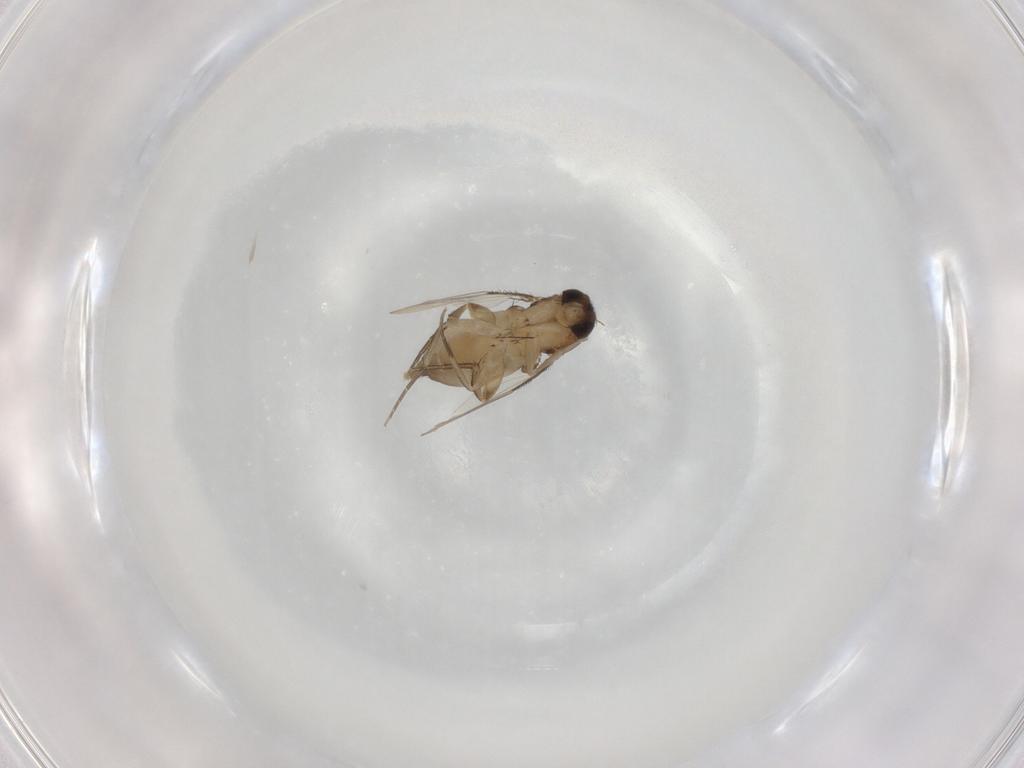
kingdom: Animalia
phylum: Arthropoda
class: Insecta
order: Diptera
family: Phoridae
